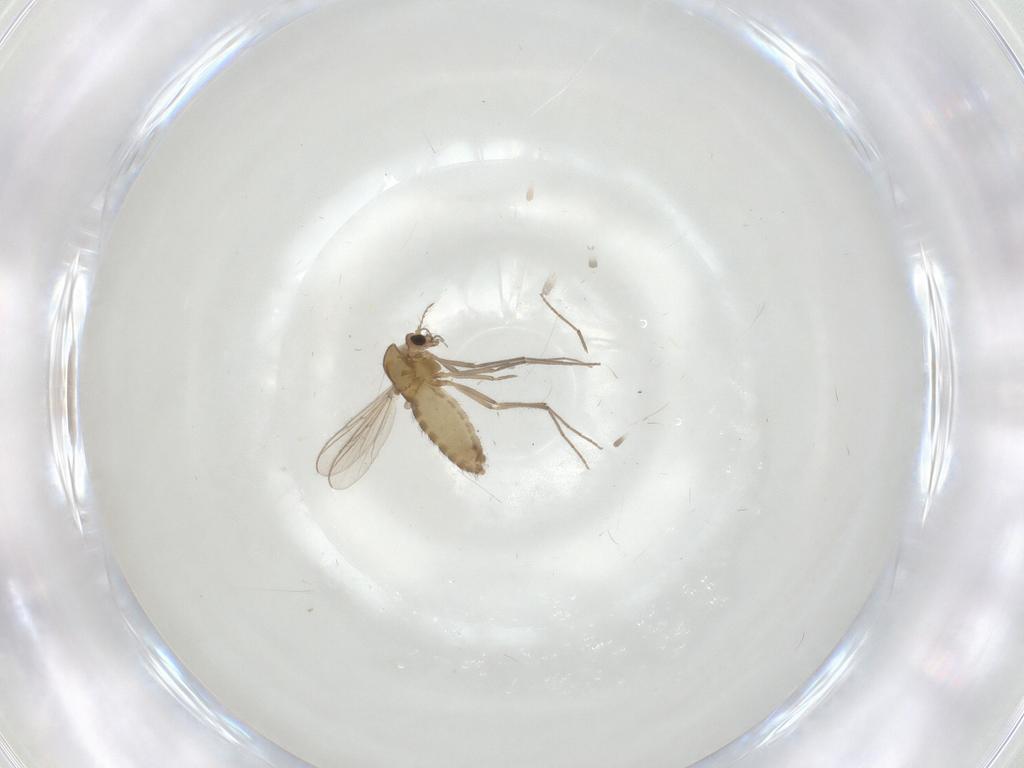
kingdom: Animalia
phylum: Arthropoda
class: Insecta
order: Diptera
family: Chironomidae
